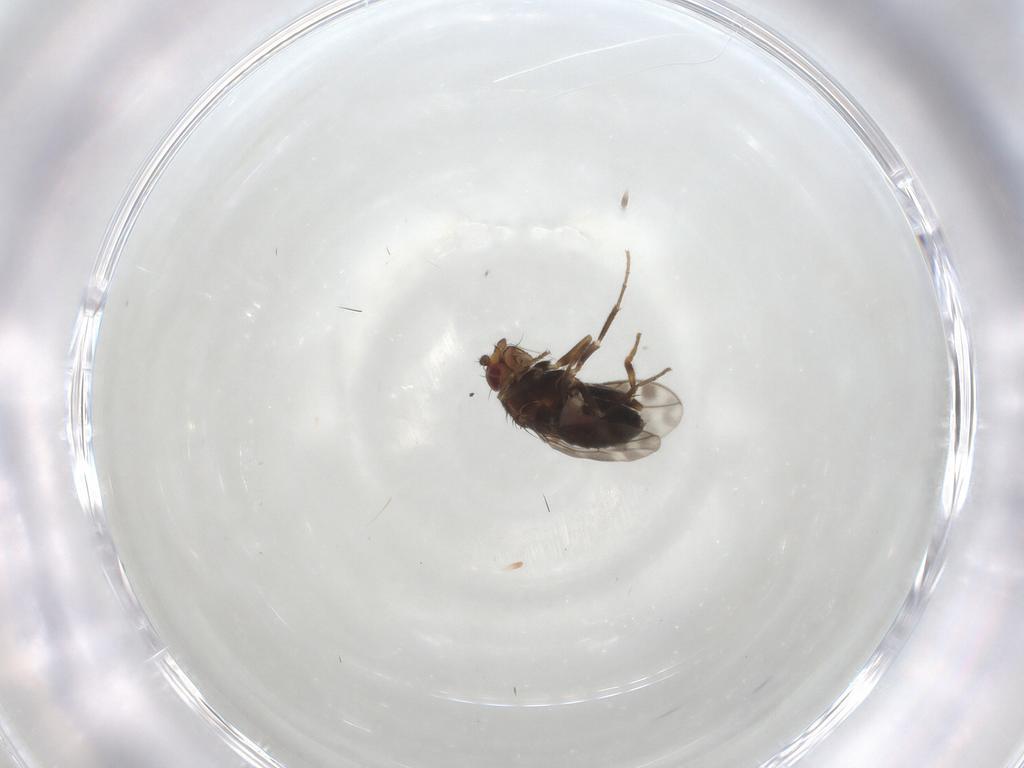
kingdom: Animalia
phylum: Arthropoda
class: Insecta
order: Diptera
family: Sphaeroceridae
